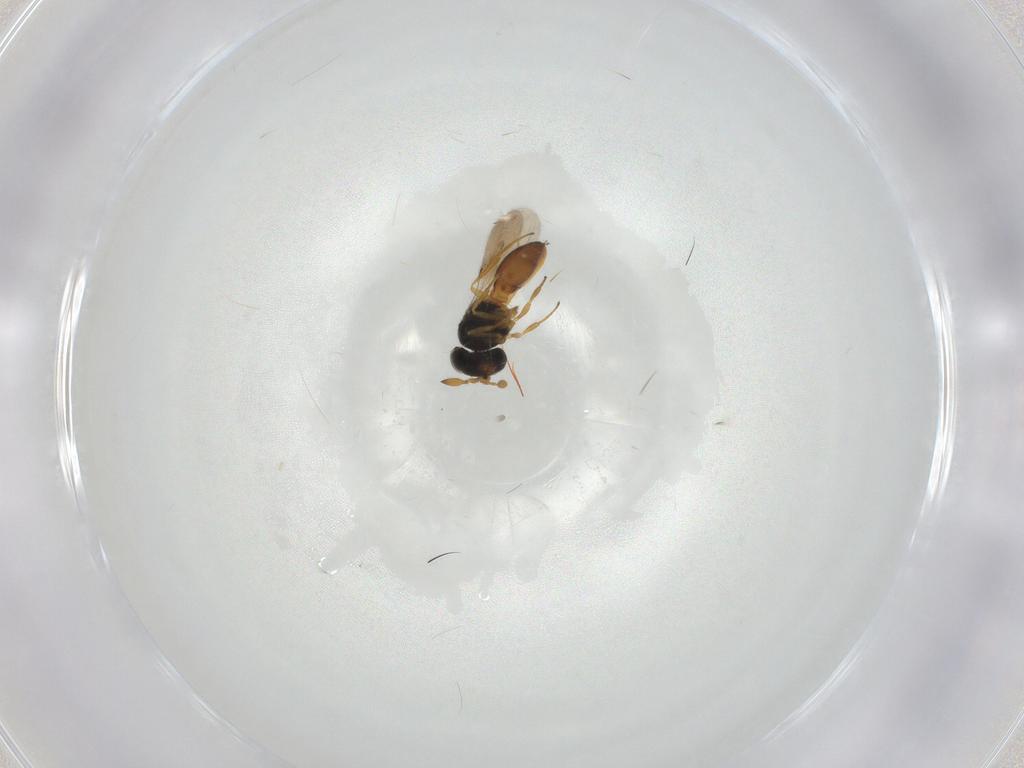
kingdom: Animalia
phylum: Arthropoda
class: Insecta
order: Hymenoptera
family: Scelionidae
